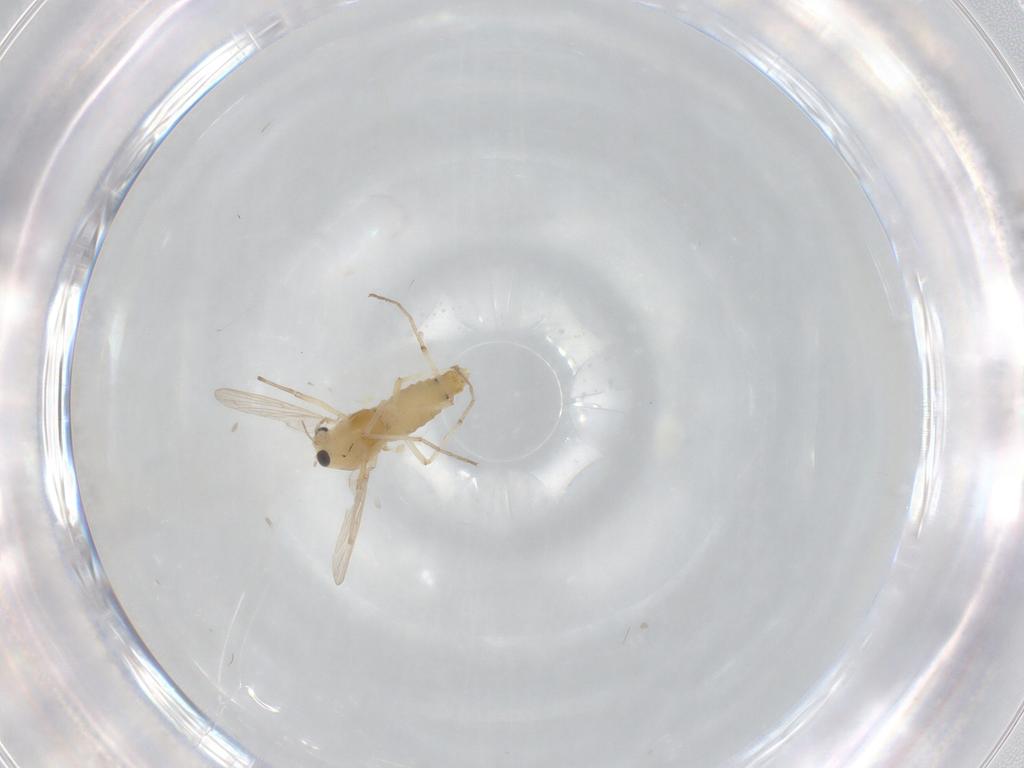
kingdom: Animalia
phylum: Arthropoda
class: Insecta
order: Diptera
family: Chironomidae
